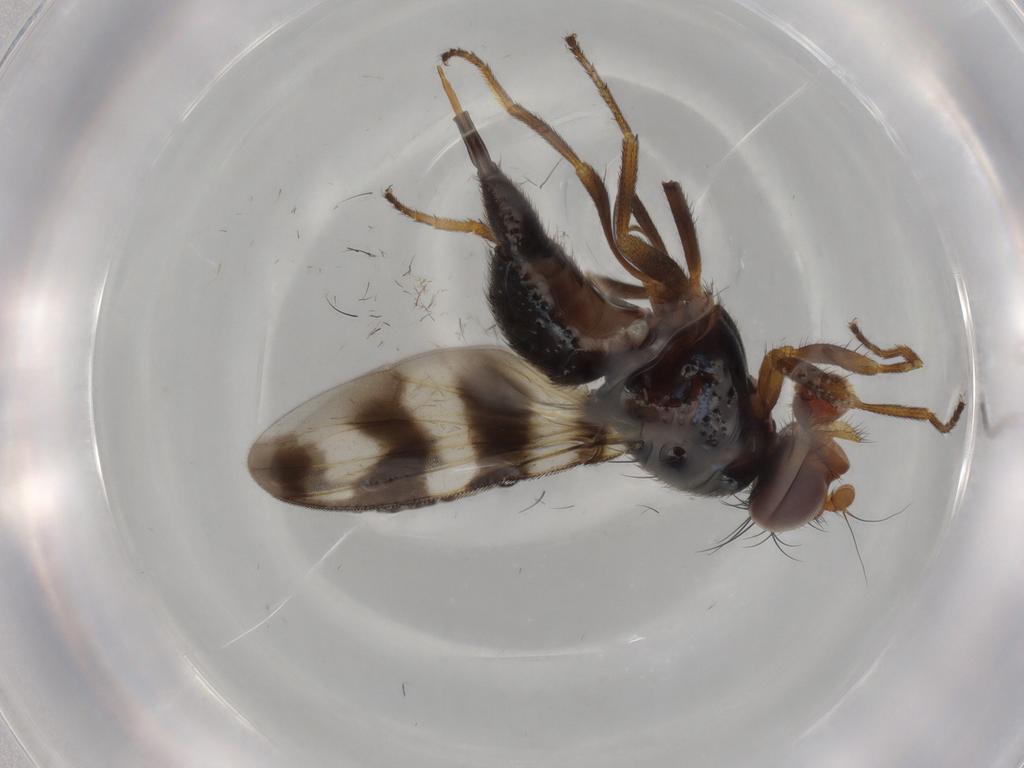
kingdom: Animalia
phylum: Arthropoda
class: Insecta
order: Diptera
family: Ulidiidae
